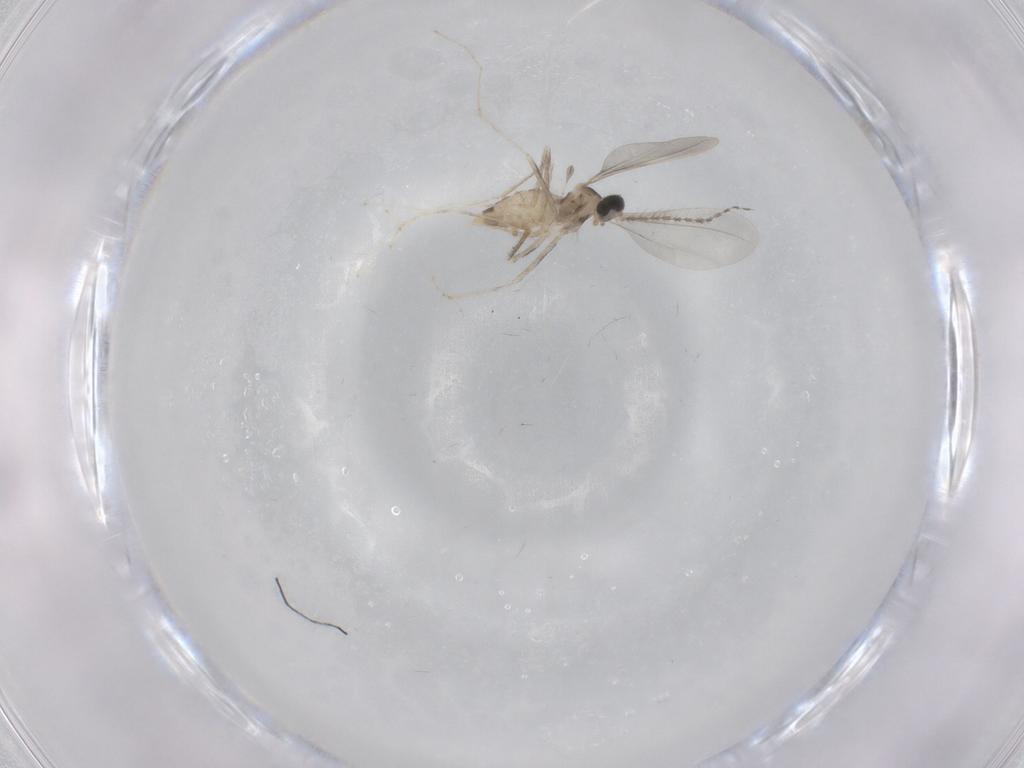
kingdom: Animalia
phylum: Arthropoda
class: Insecta
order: Diptera
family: Cecidomyiidae
